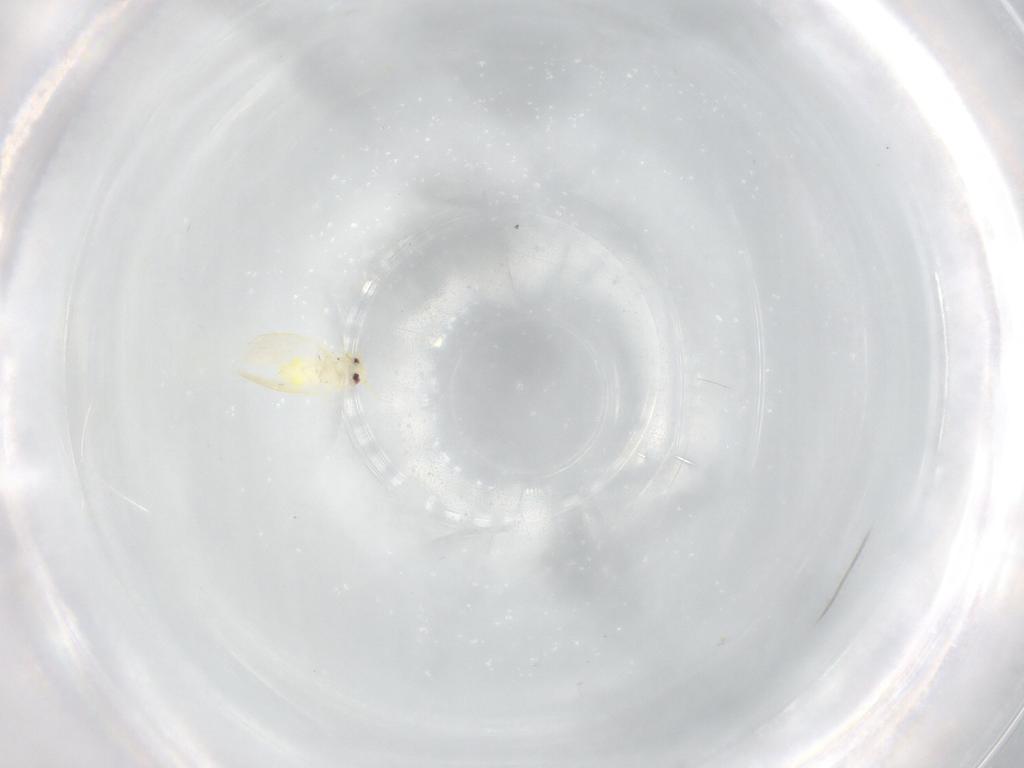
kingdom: Animalia
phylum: Arthropoda
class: Insecta
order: Hemiptera
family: Aleyrodidae
